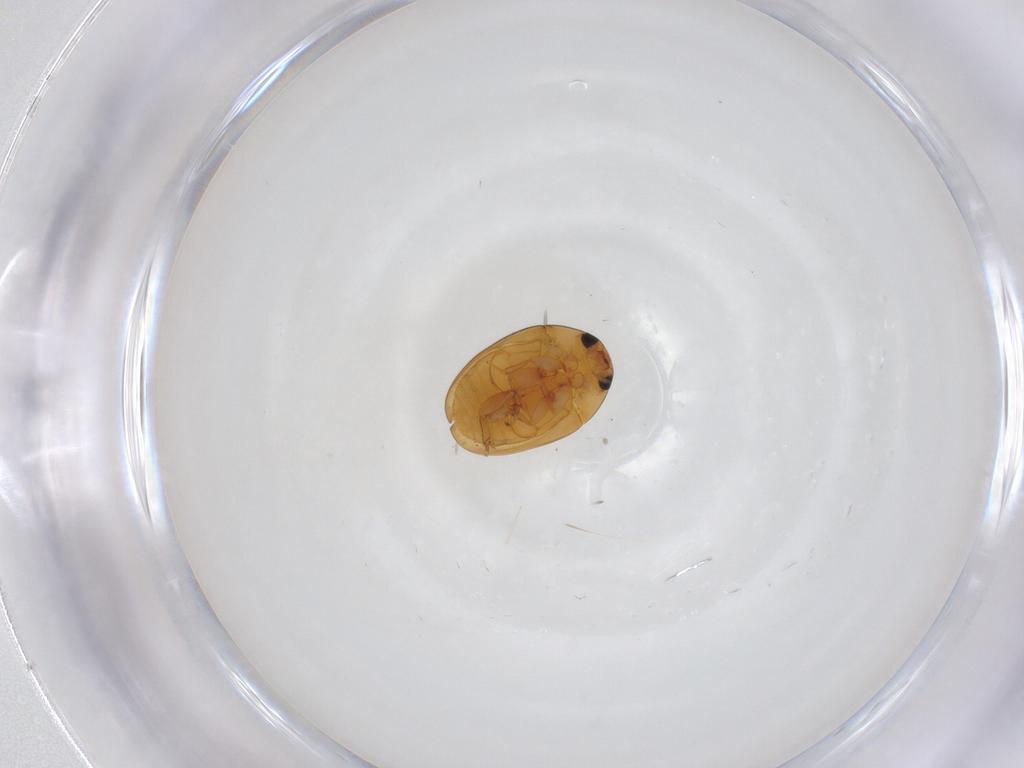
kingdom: Animalia
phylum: Arthropoda
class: Insecta
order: Coleoptera
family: Phalacridae
